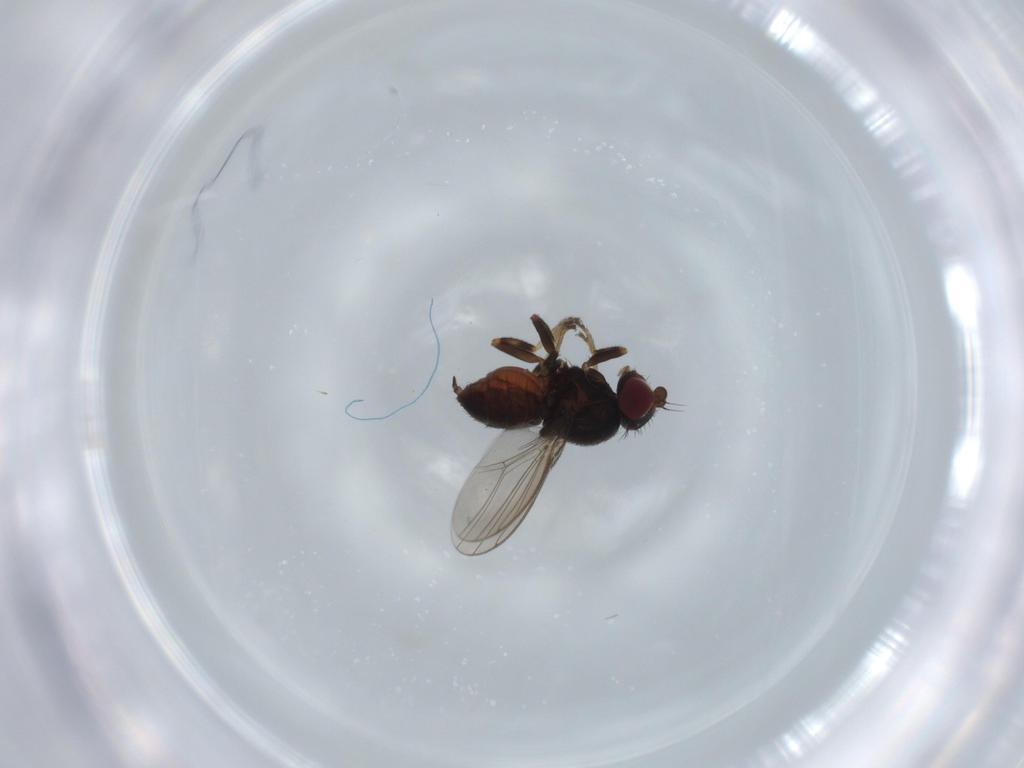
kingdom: Animalia
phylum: Arthropoda
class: Insecta
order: Diptera
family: Chloropidae
